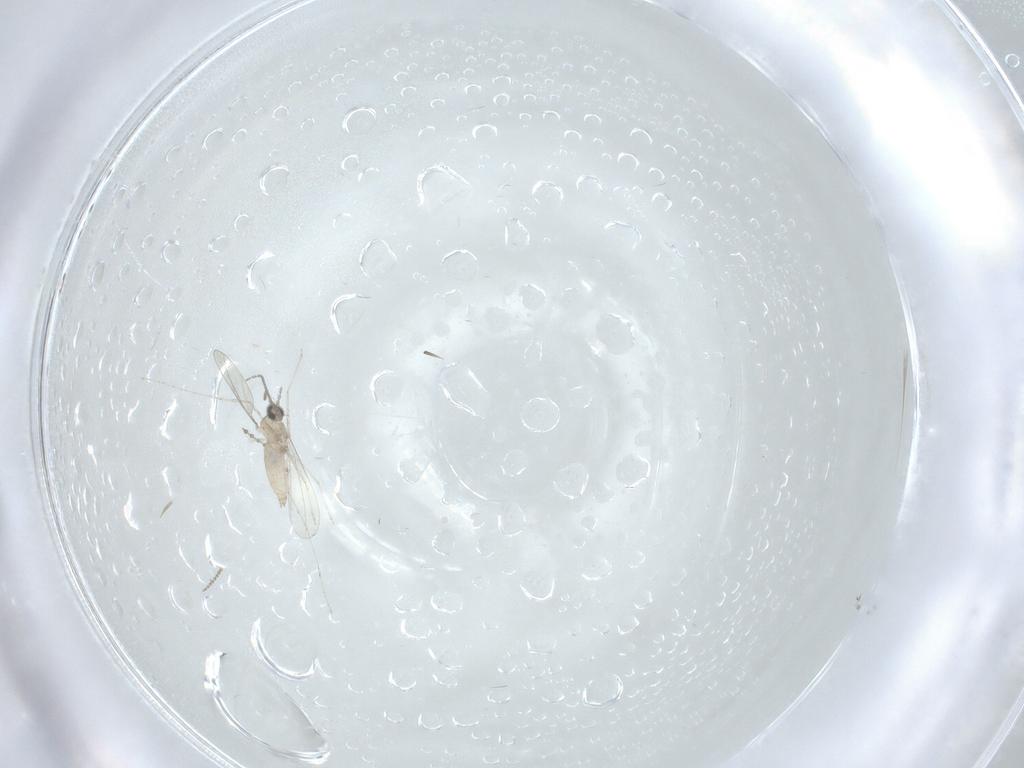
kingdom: Animalia
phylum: Arthropoda
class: Insecta
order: Diptera
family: Cecidomyiidae
